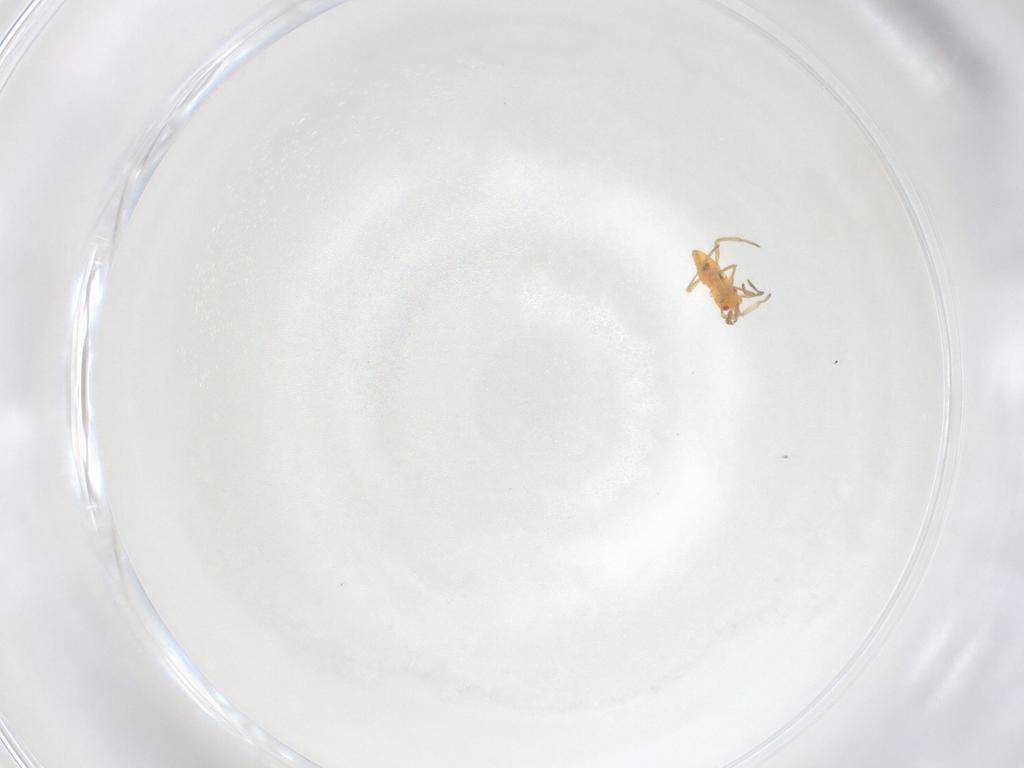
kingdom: Animalia
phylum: Arthropoda
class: Insecta
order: Hemiptera
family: Miridae
